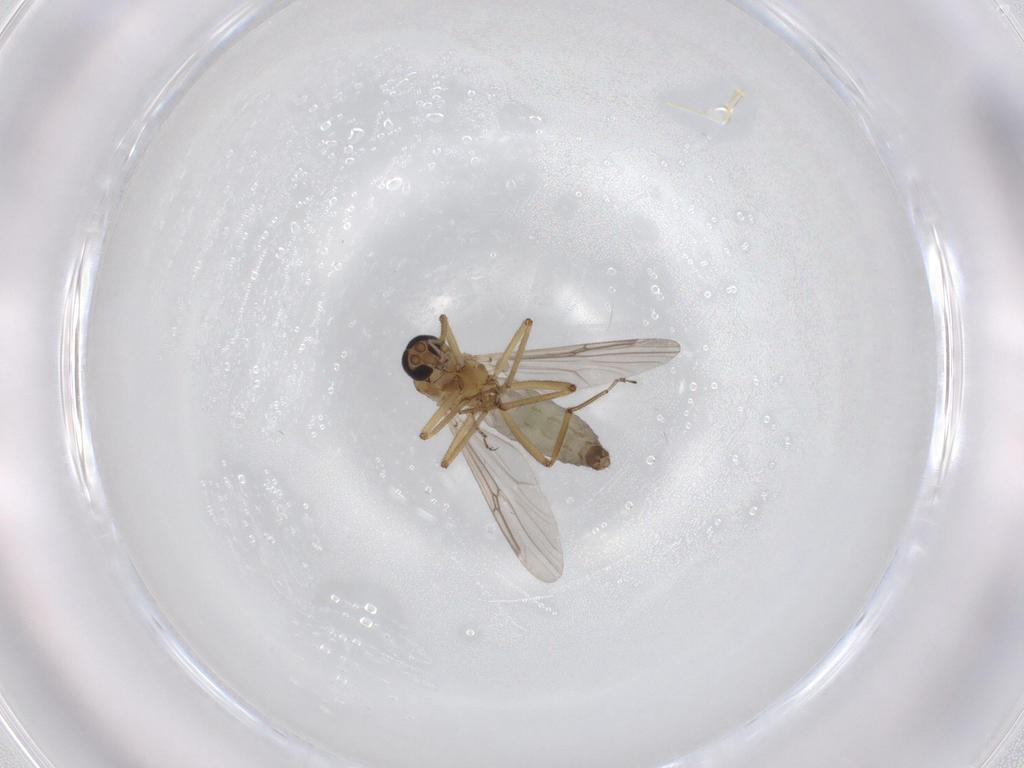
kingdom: Animalia
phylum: Arthropoda
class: Insecta
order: Diptera
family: Ceratopogonidae
